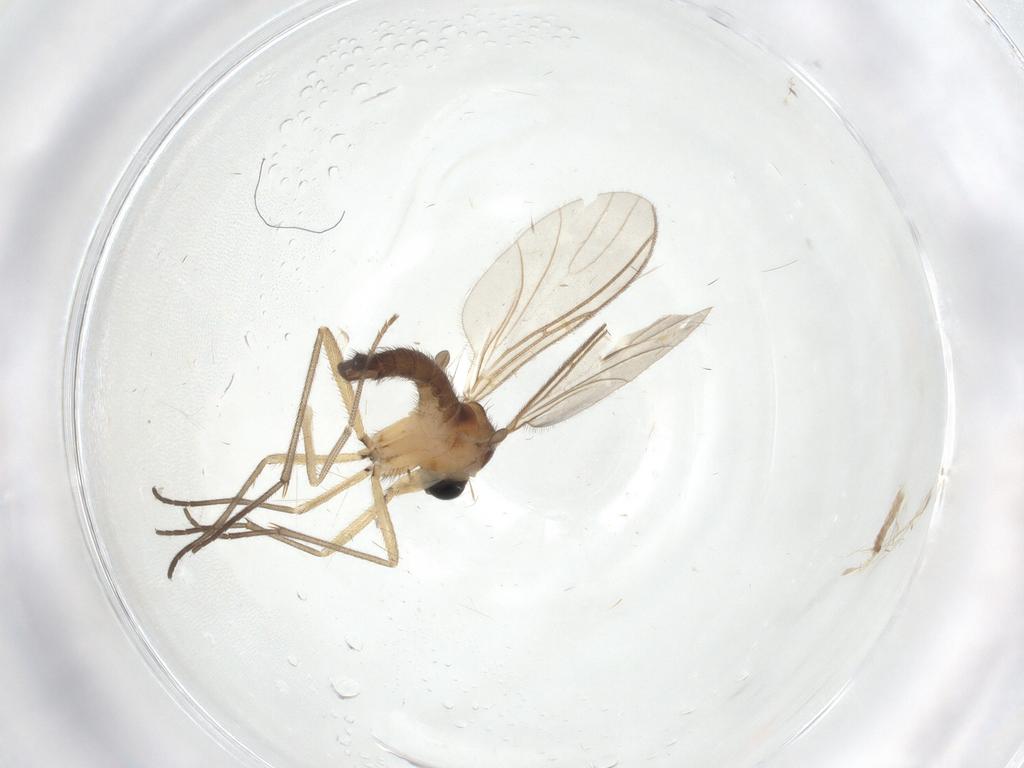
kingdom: Animalia
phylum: Arthropoda
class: Insecta
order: Diptera
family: Sciaridae
